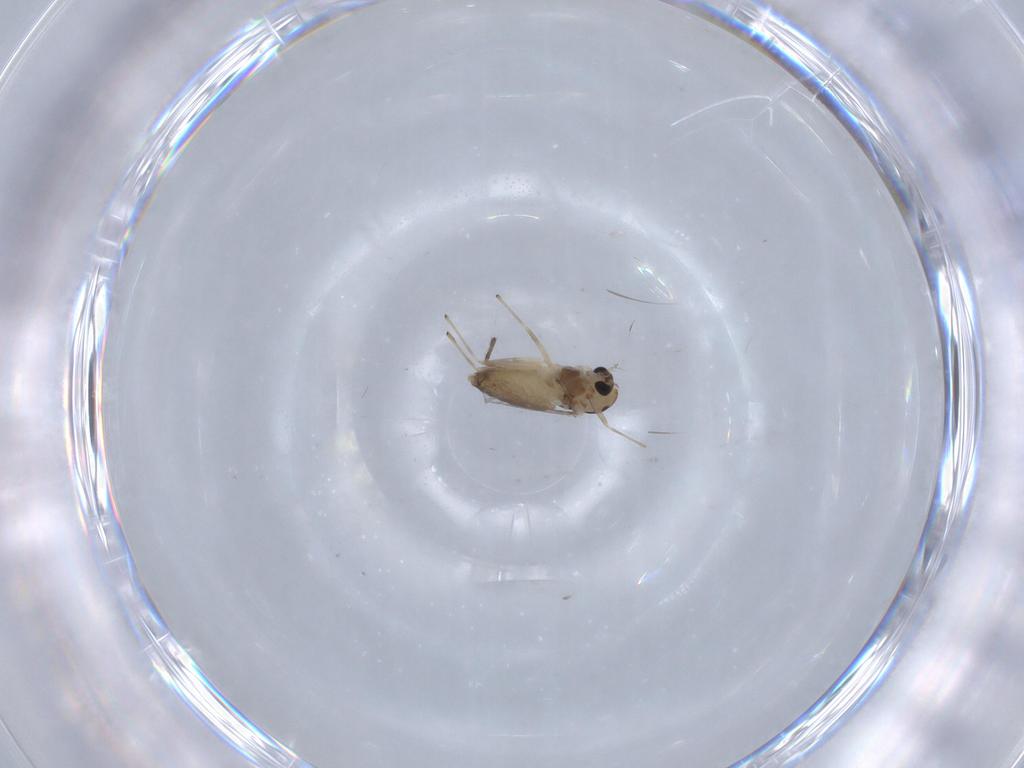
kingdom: Animalia
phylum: Arthropoda
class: Insecta
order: Diptera
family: Chironomidae
